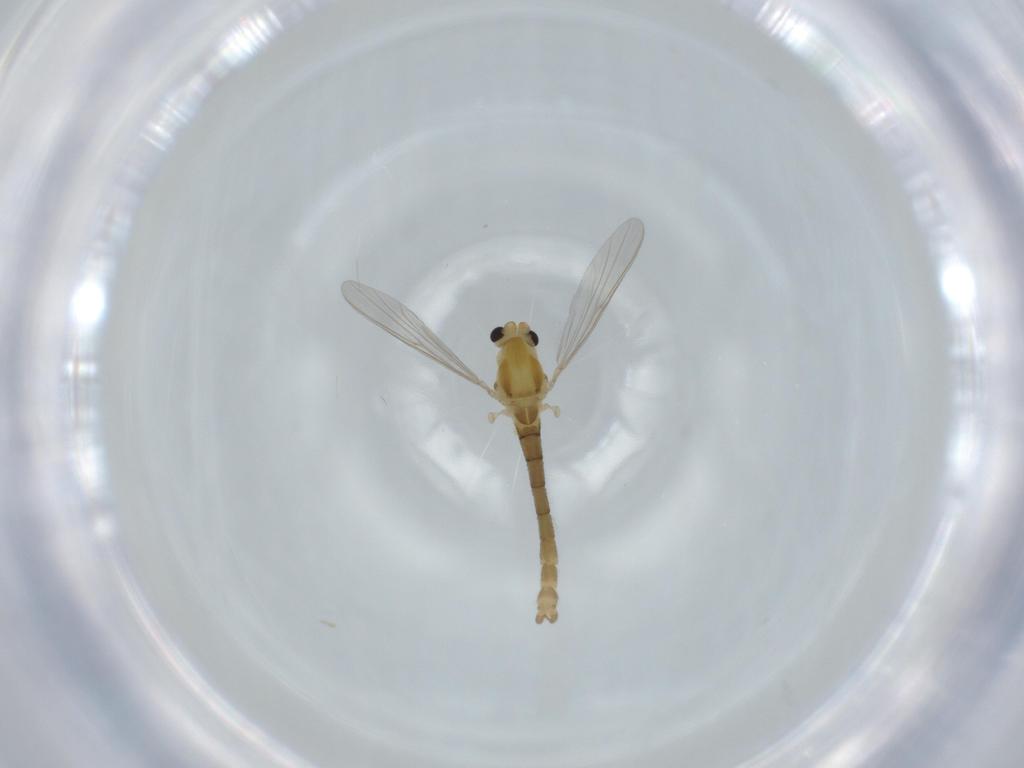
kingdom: Animalia
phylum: Arthropoda
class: Insecta
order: Diptera
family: Chironomidae
